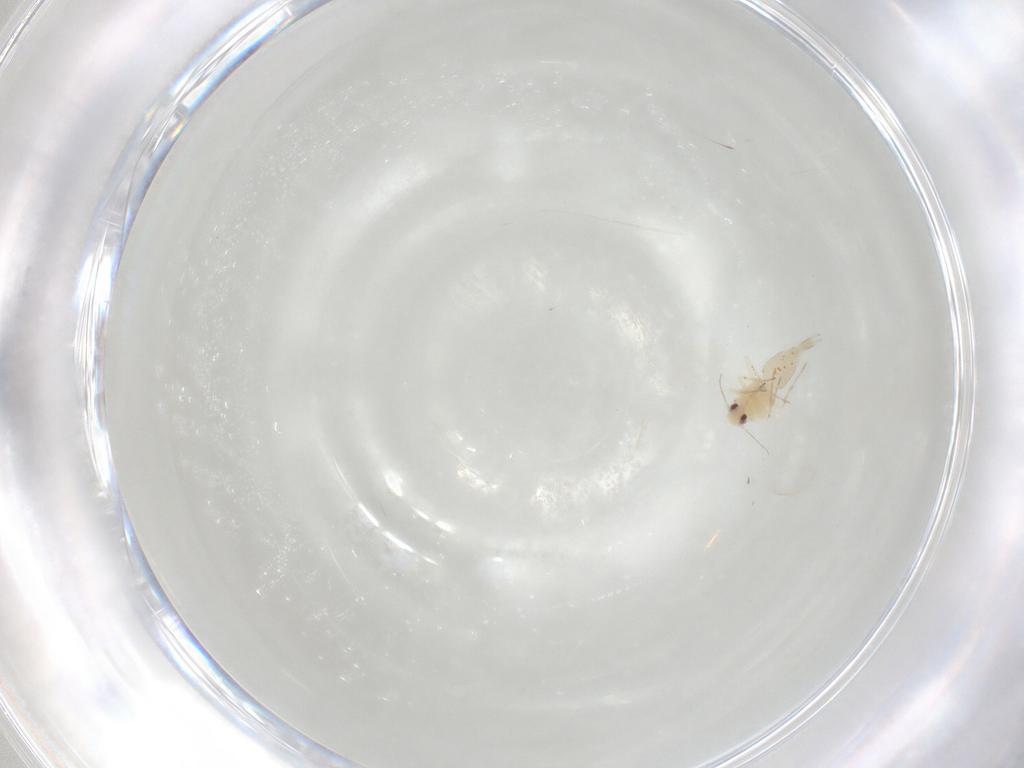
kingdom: Animalia
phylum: Arthropoda
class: Insecta
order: Hemiptera
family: Aleyrodidae
